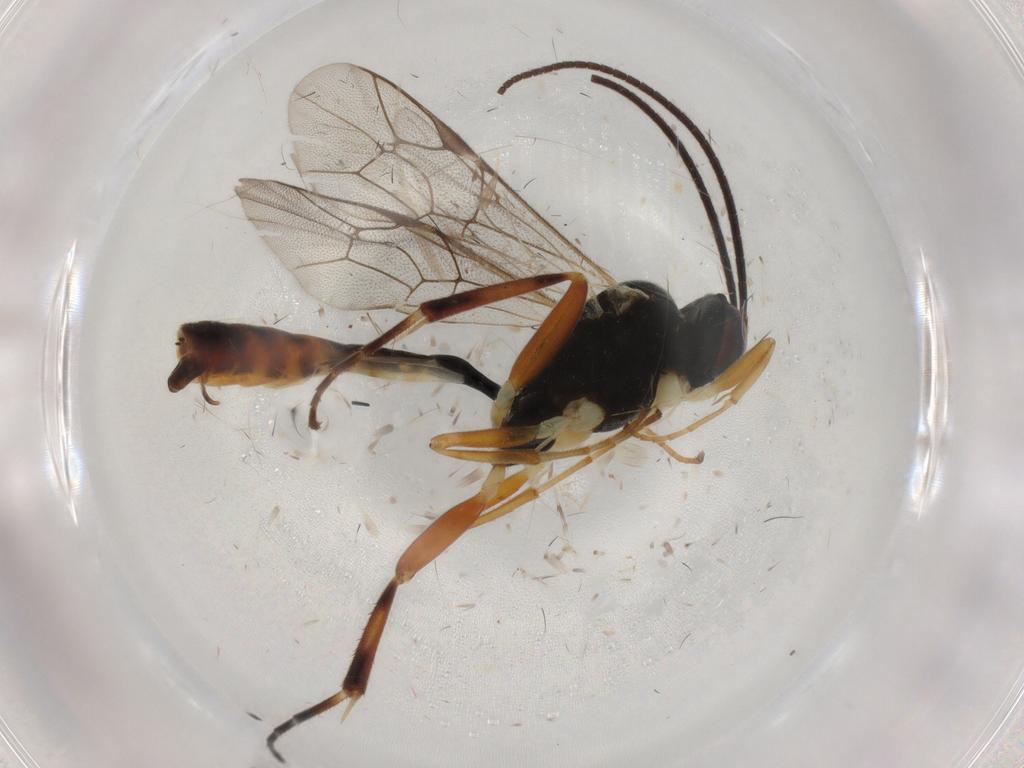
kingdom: Animalia
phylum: Arthropoda
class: Insecta
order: Hymenoptera
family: Ichneumonidae
